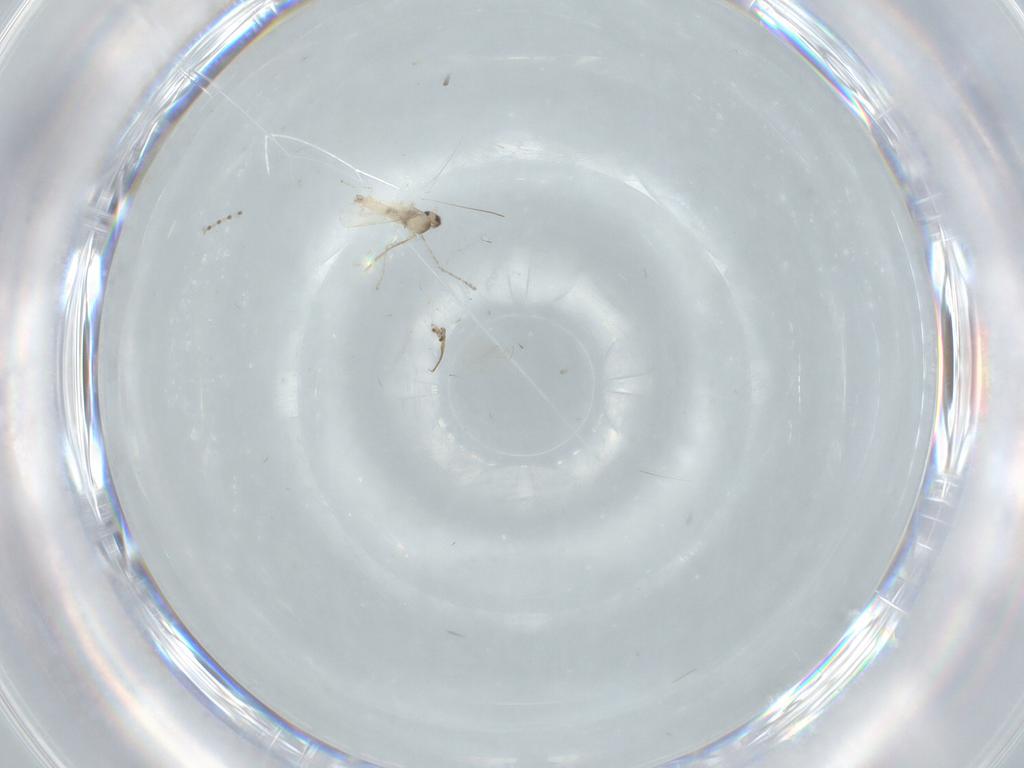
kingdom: Animalia
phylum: Arthropoda
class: Insecta
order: Diptera
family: Cecidomyiidae
